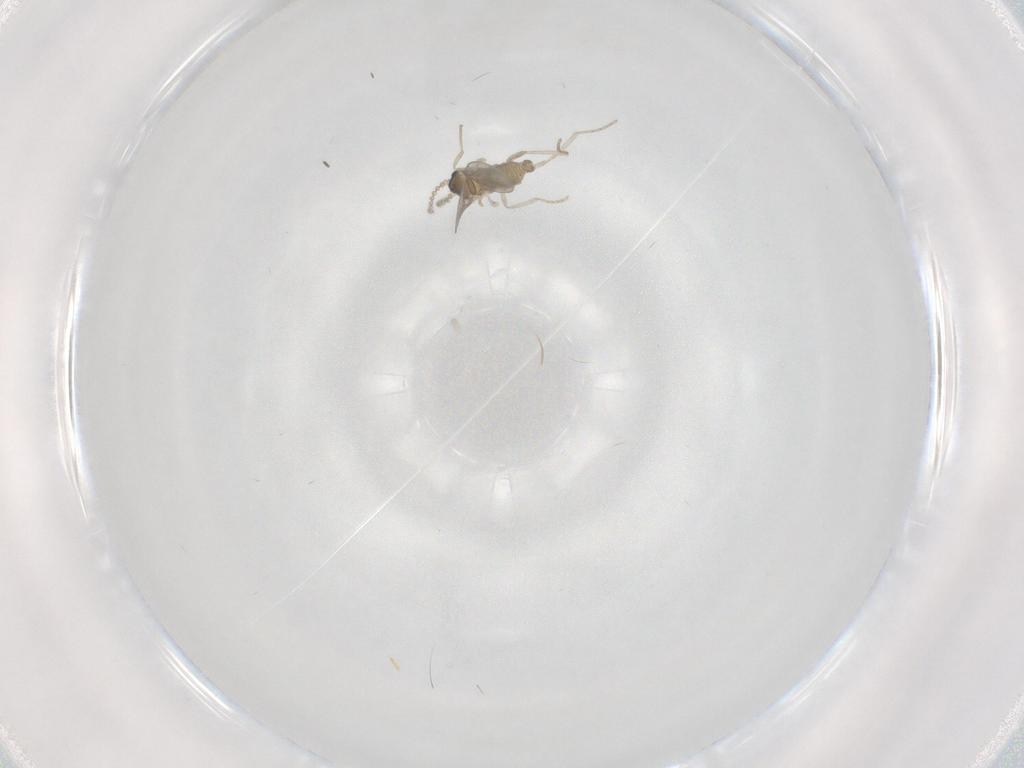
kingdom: Animalia
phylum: Arthropoda
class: Insecta
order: Diptera
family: Cecidomyiidae
